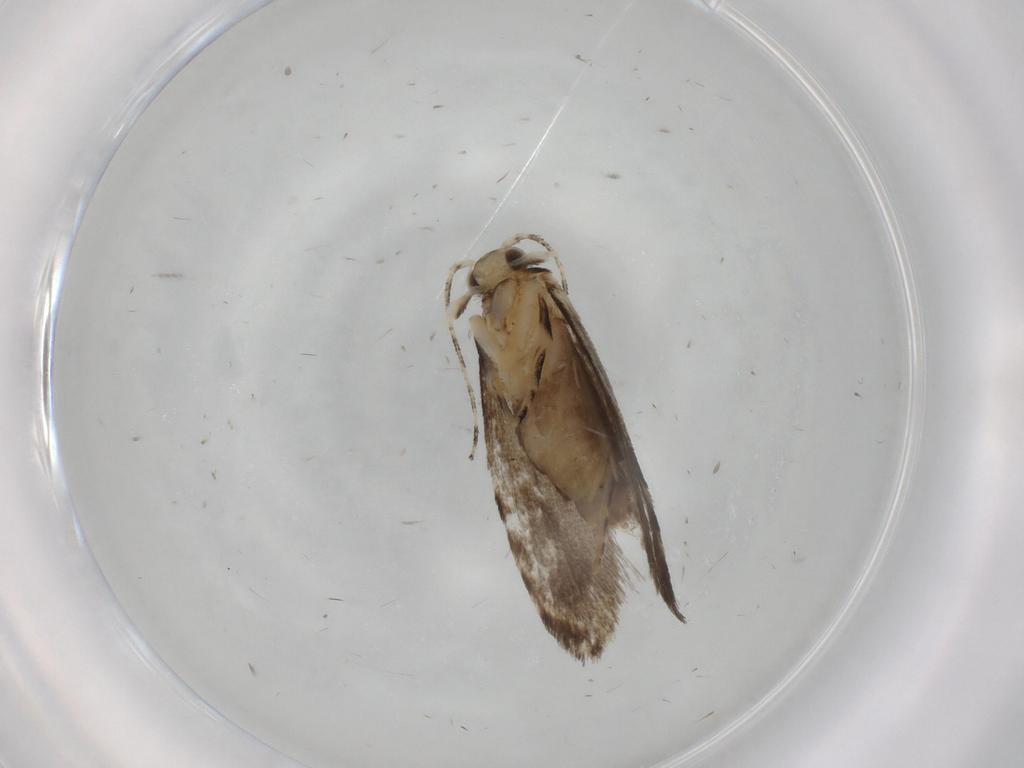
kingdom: Animalia
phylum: Arthropoda
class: Insecta
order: Lepidoptera
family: Tineidae
